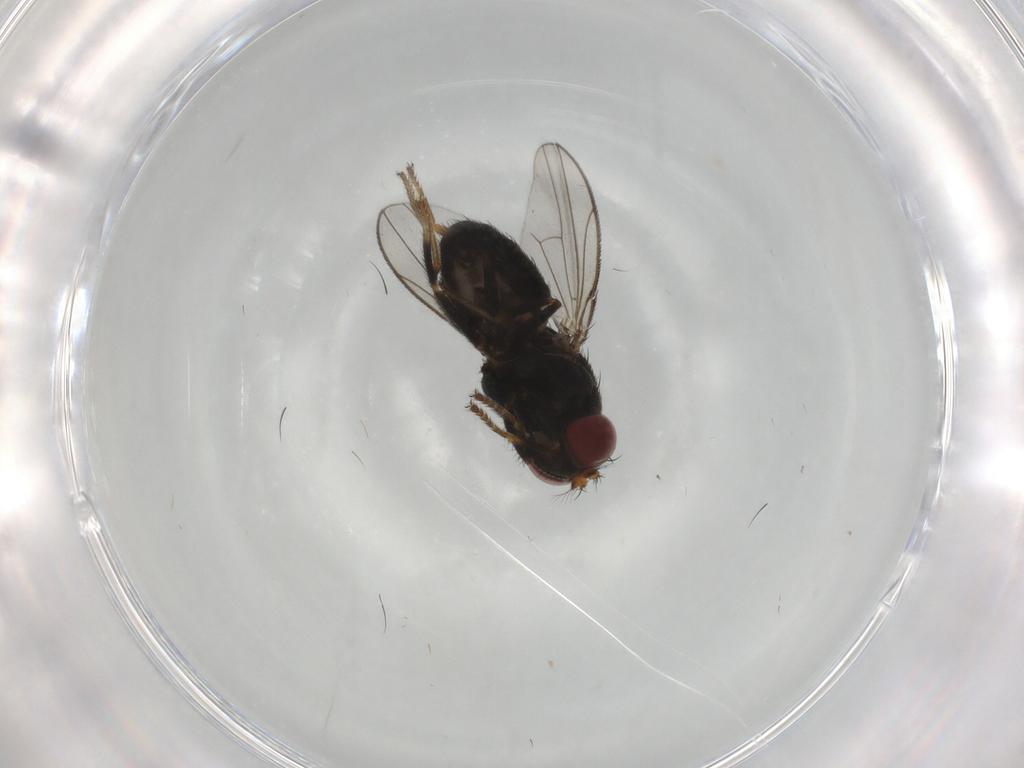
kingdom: Animalia
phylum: Arthropoda
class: Insecta
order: Diptera
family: Ephydridae
